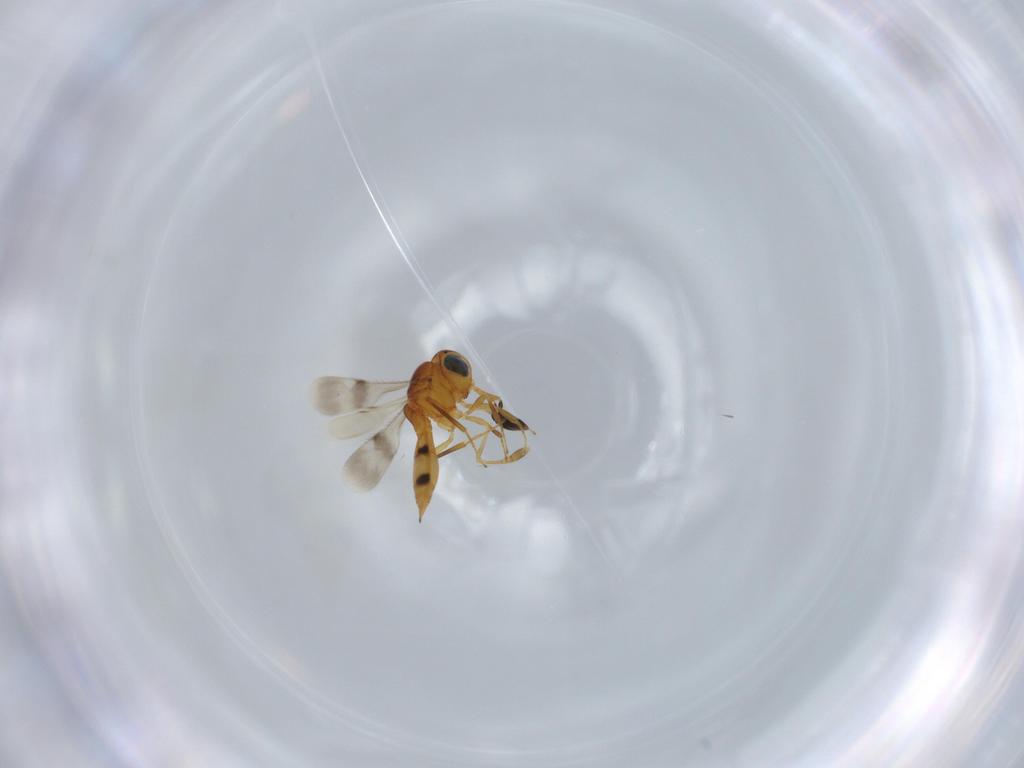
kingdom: Animalia
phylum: Arthropoda
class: Insecta
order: Hymenoptera
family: Scelionidae
